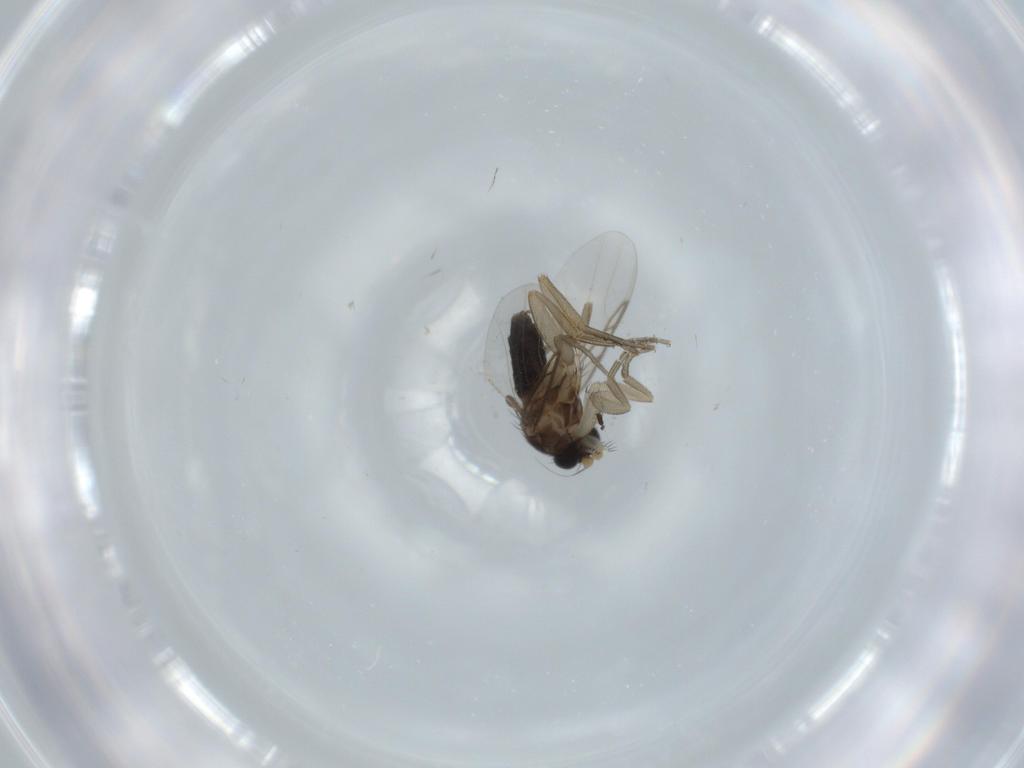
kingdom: Animalia
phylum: Arthropoda
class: Insecta
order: Diptera
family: Phoridae
